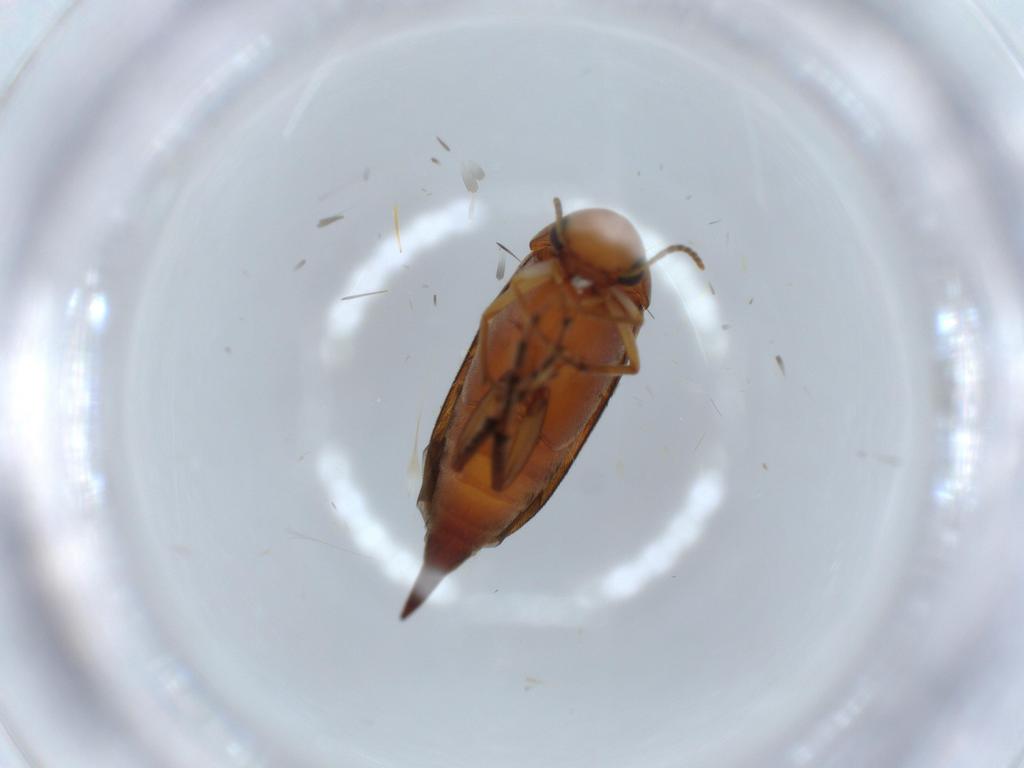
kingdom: Animalia
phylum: Arthropoda
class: Insecta
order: Coleoptera
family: Mordellidae
